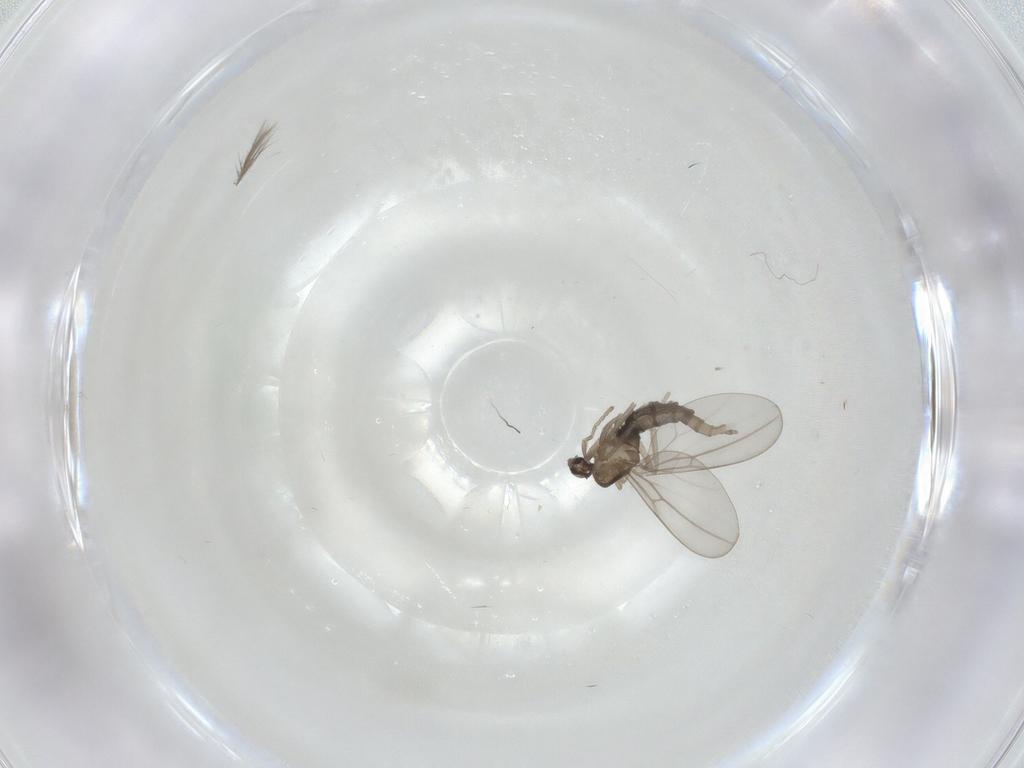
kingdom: Animalia
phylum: Arthropoda
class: Insecta
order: Diptera
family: Cecidomyiidae
